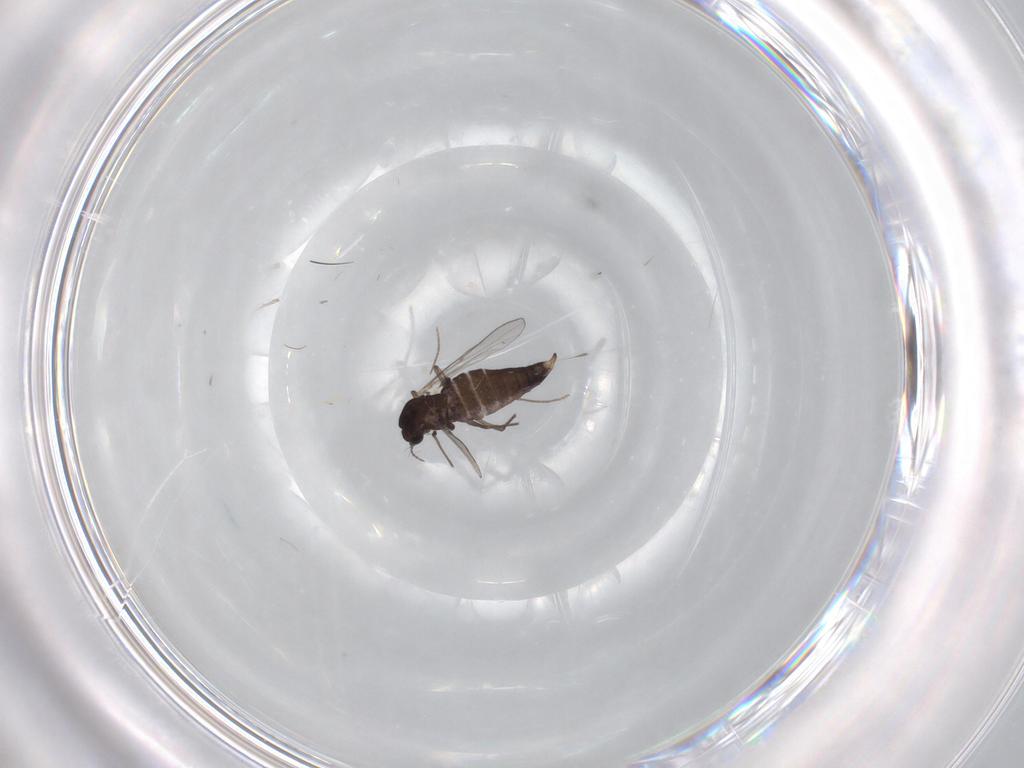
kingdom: Animalia
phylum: Arthropoda
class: Insecta
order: Diptera
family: Chironomidae
